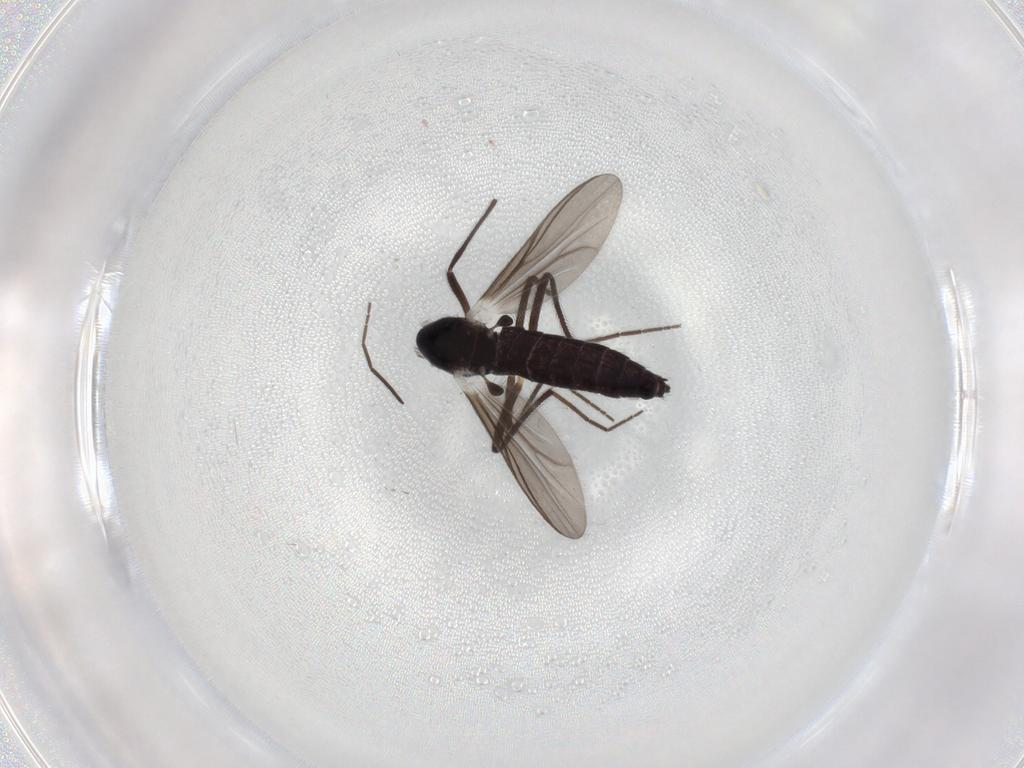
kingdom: Animalia
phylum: Arthropoda
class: Insecta
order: Diptera
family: Chironomidae
